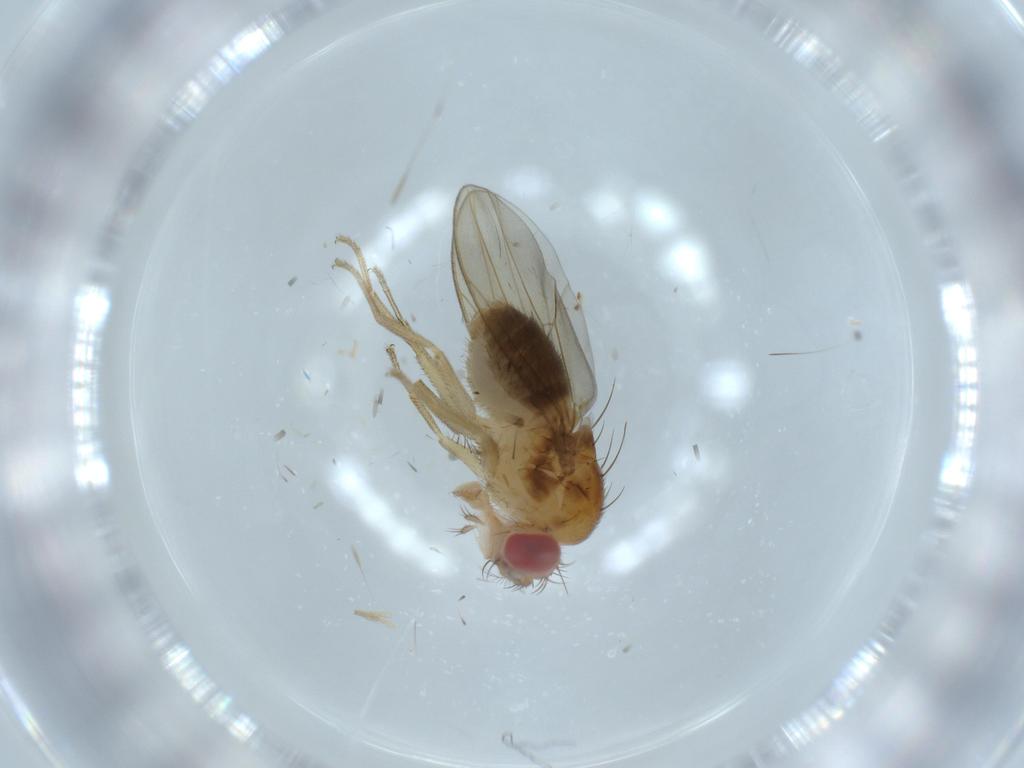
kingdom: Animalia
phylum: Arthropoda
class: Insecta
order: Diptera
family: Drosophilidae
